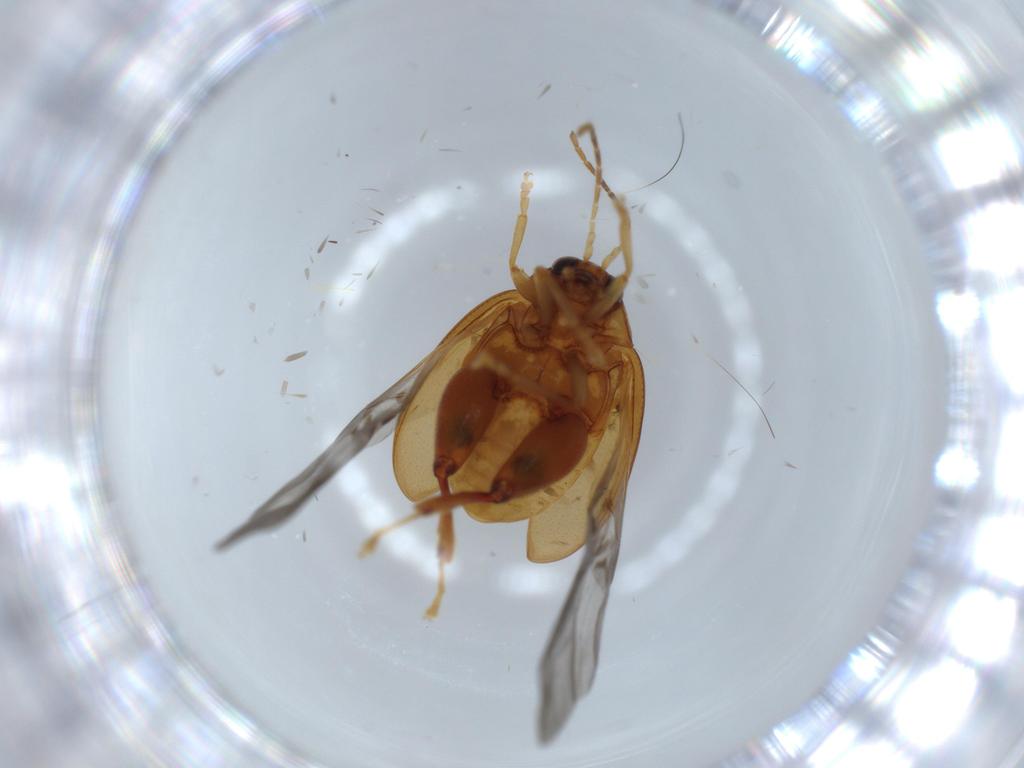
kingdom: Animalia
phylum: Arthropoda
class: Insecta
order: Coleoptera
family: Chrysomelidae
